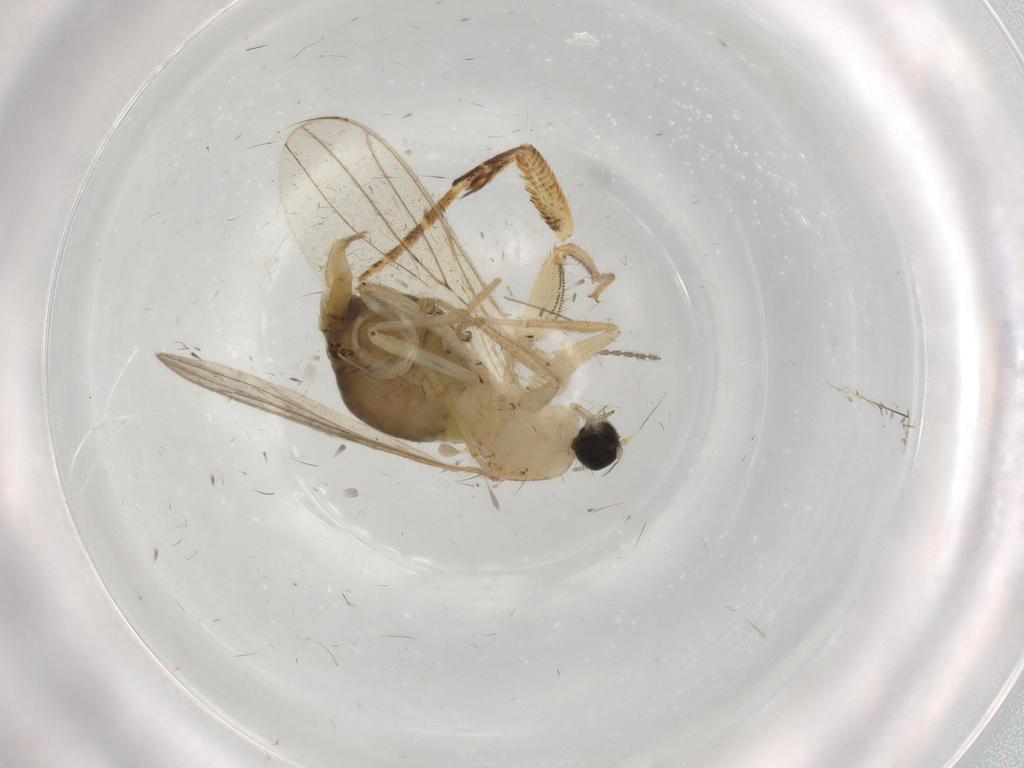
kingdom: Animalia
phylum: Arthropoda
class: Insecta
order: Diptera
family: Hybotidae
